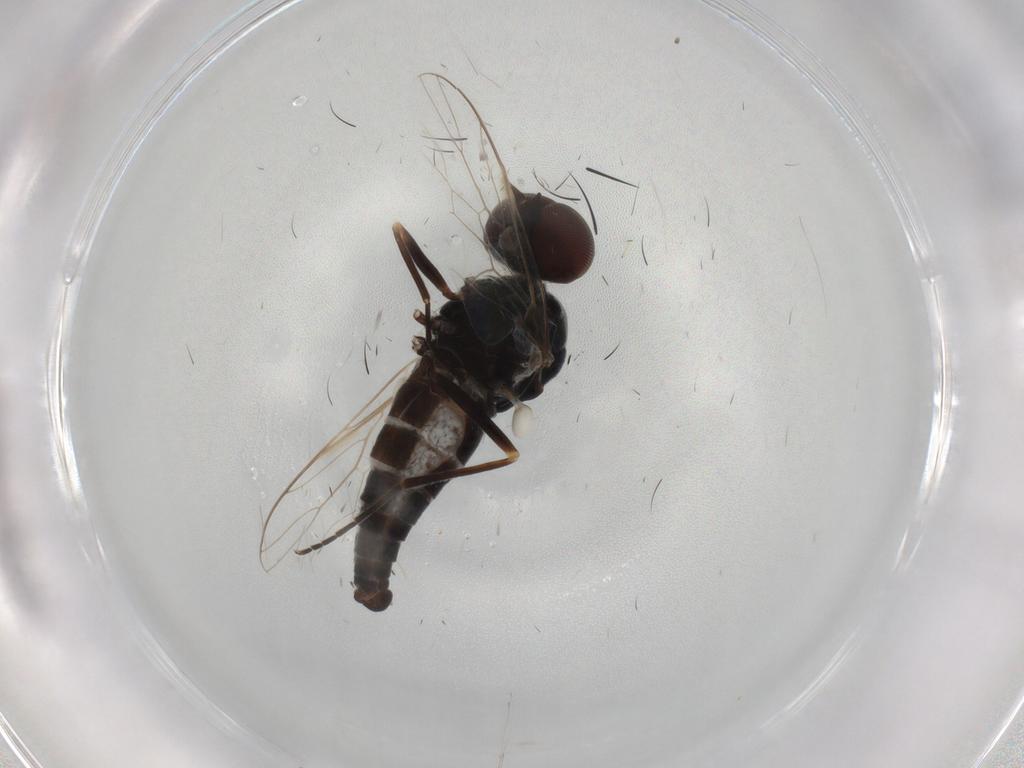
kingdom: Animalia
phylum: Arthropoda
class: Insecta
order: Diptera
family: Scenopinidae
